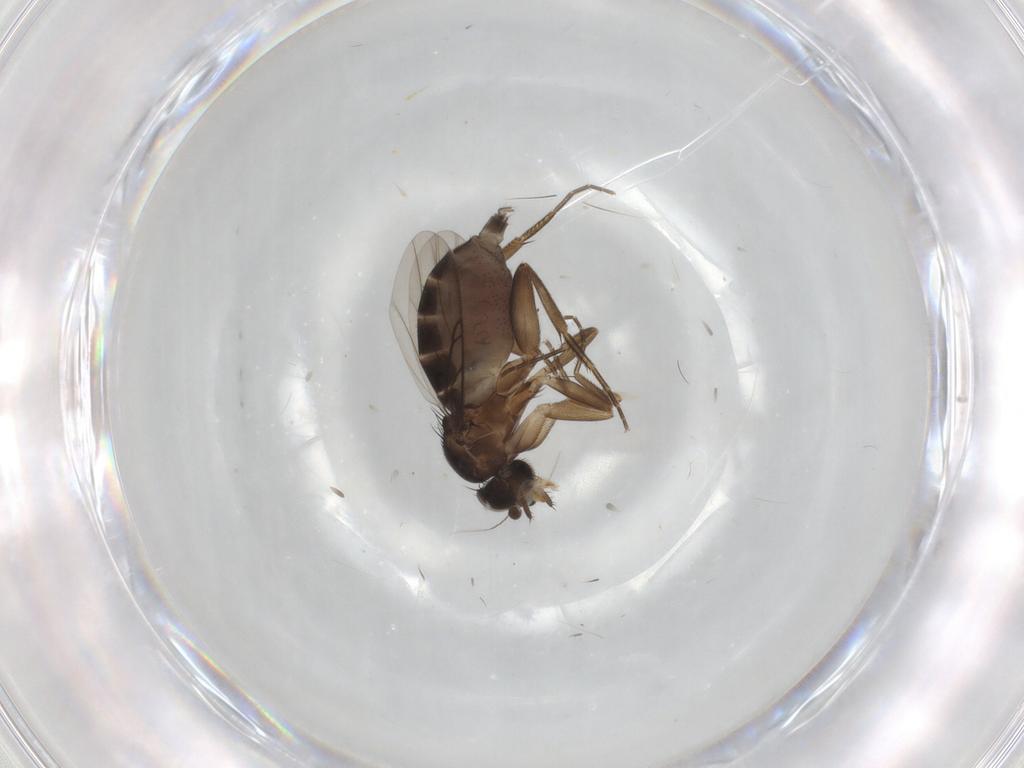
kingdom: Animalia
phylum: Arthropoda
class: Insecta
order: Diptera
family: Phoridae
